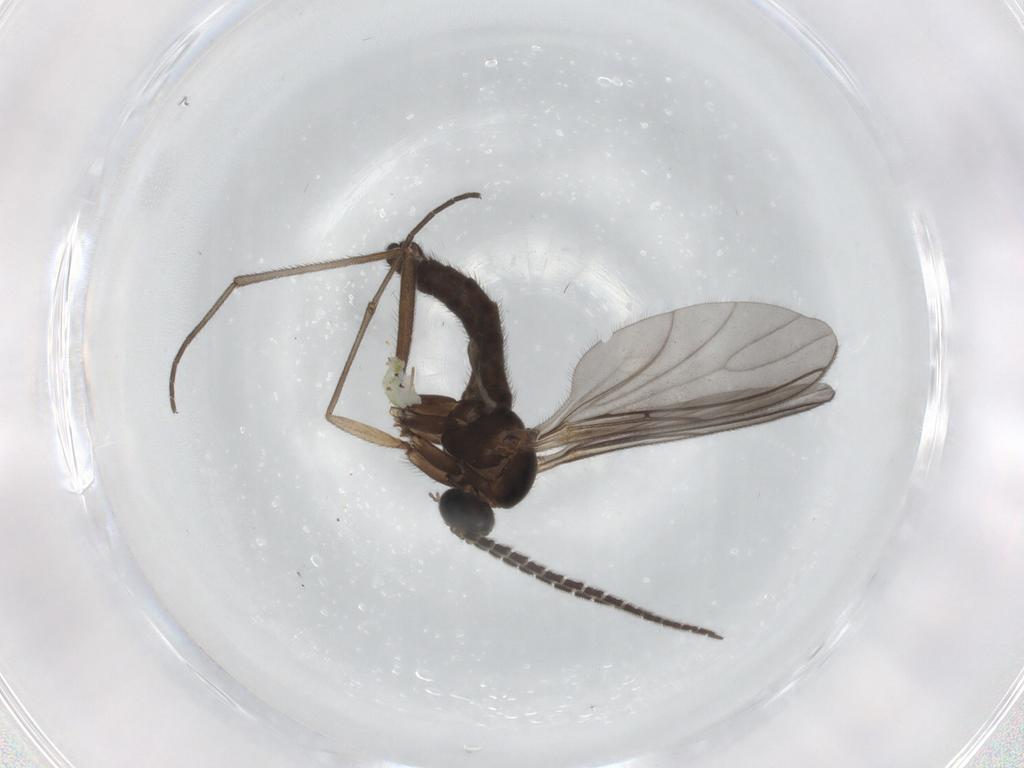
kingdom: Animalia
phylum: Arthropoda
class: Insecta
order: Diptera
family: Sciaridae
